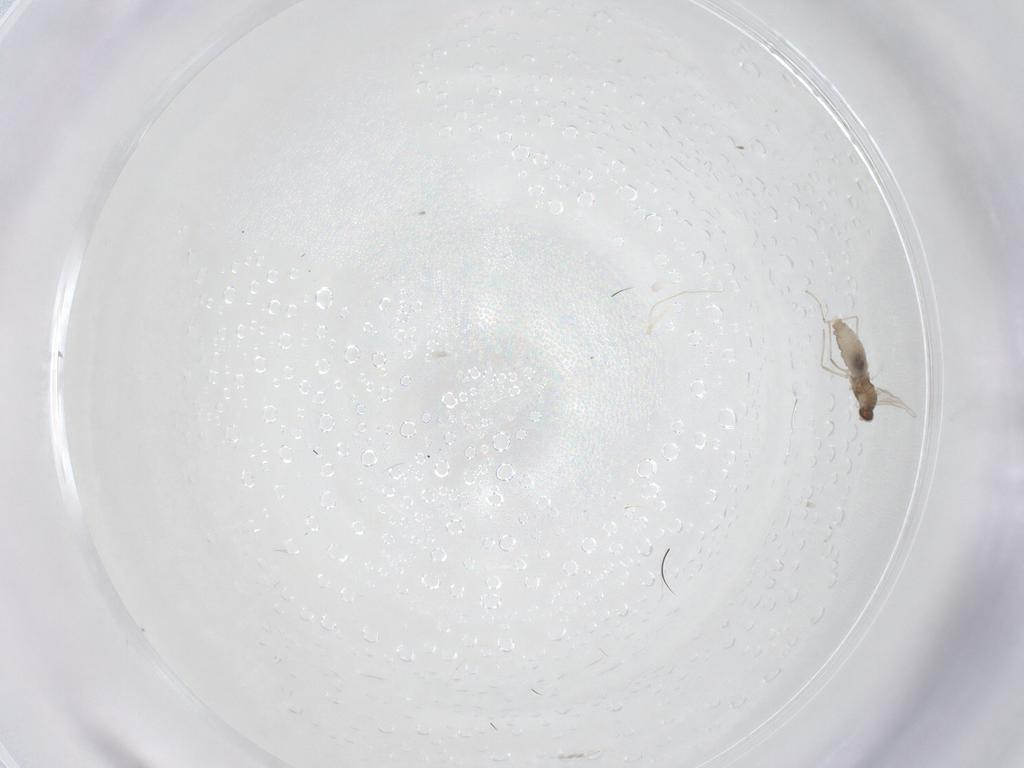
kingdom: Animalia
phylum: Arthropoda
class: Insecta
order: Diptera
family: Cecidomyiidae
